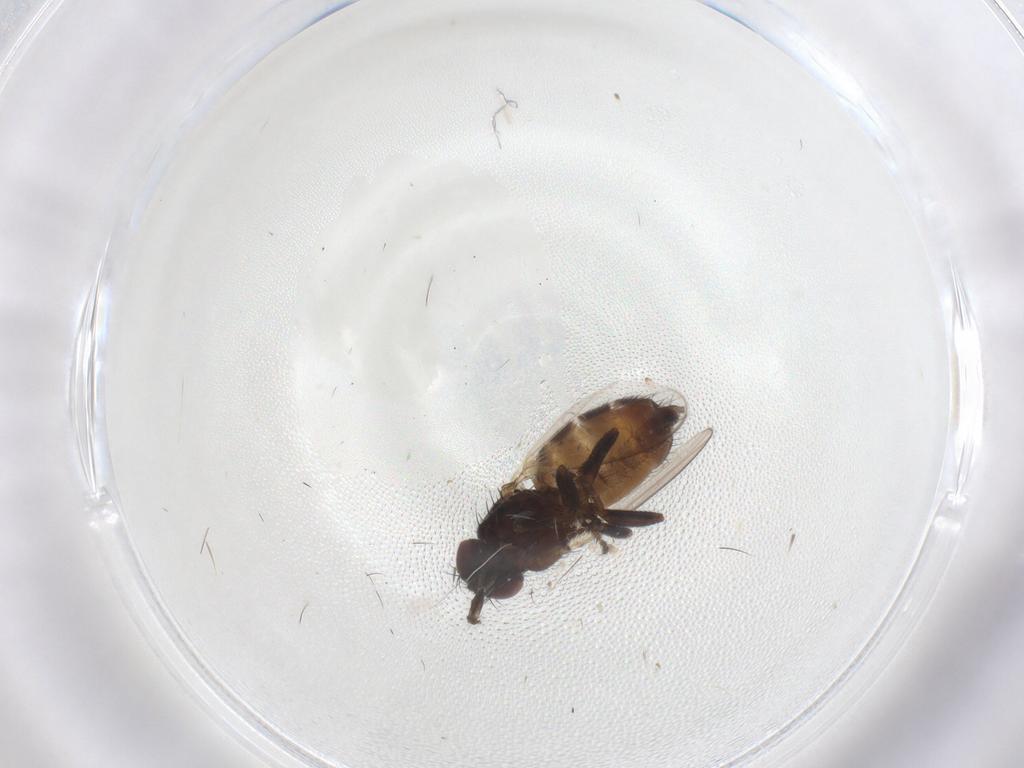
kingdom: Animalia
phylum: Arthropoda
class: Insecta
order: Diptera
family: Milichiidae
